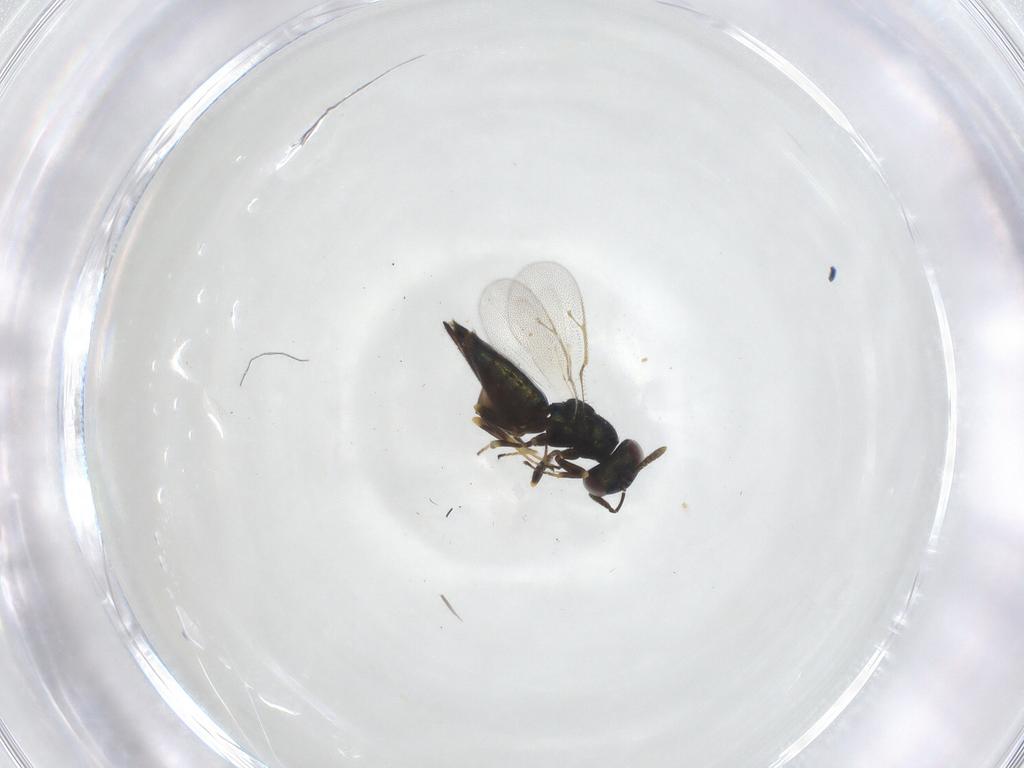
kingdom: Animalia
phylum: Arthropoda
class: Insecta
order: Hymenoptera
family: Pteromalidae
